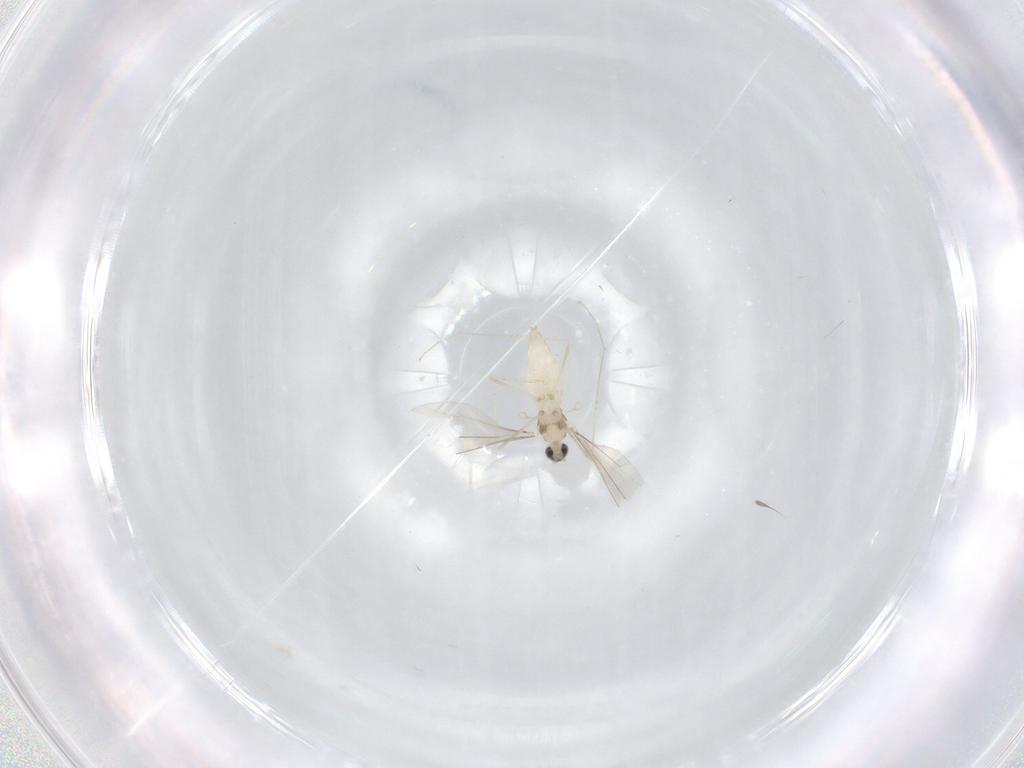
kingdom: Animalia
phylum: Arthropoda
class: Insecta
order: Diptera
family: Cecidomyiidae
